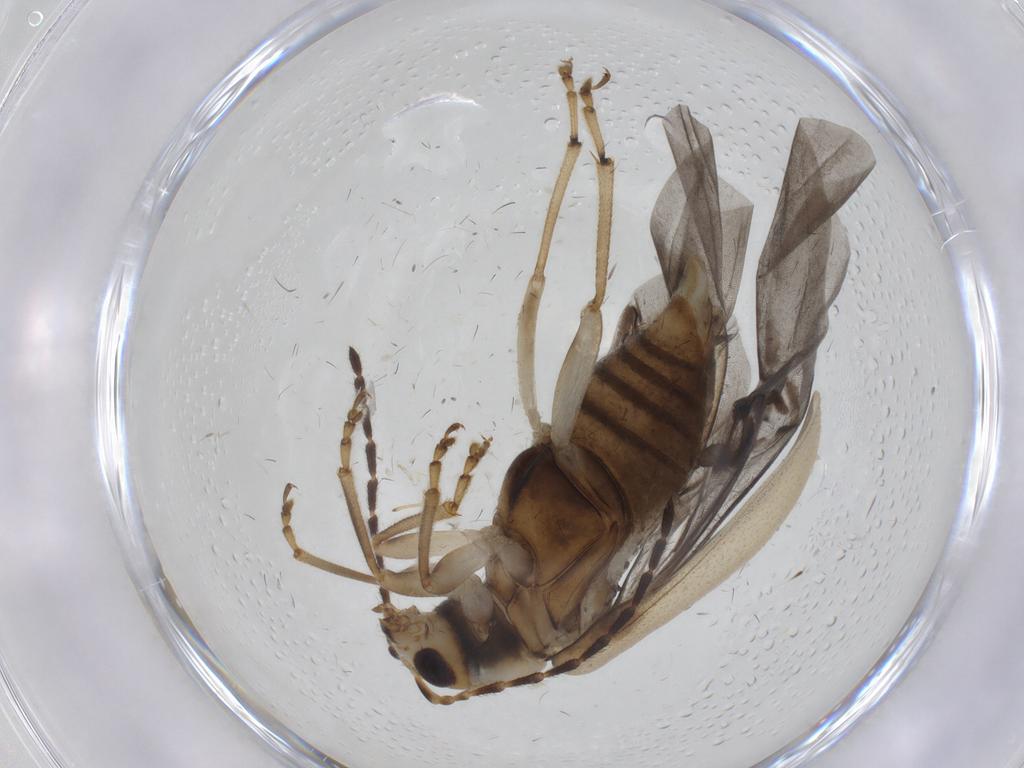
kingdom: Animalia
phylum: Arthropoda
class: Insecta
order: Coleoptera
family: Chrysomelidae
